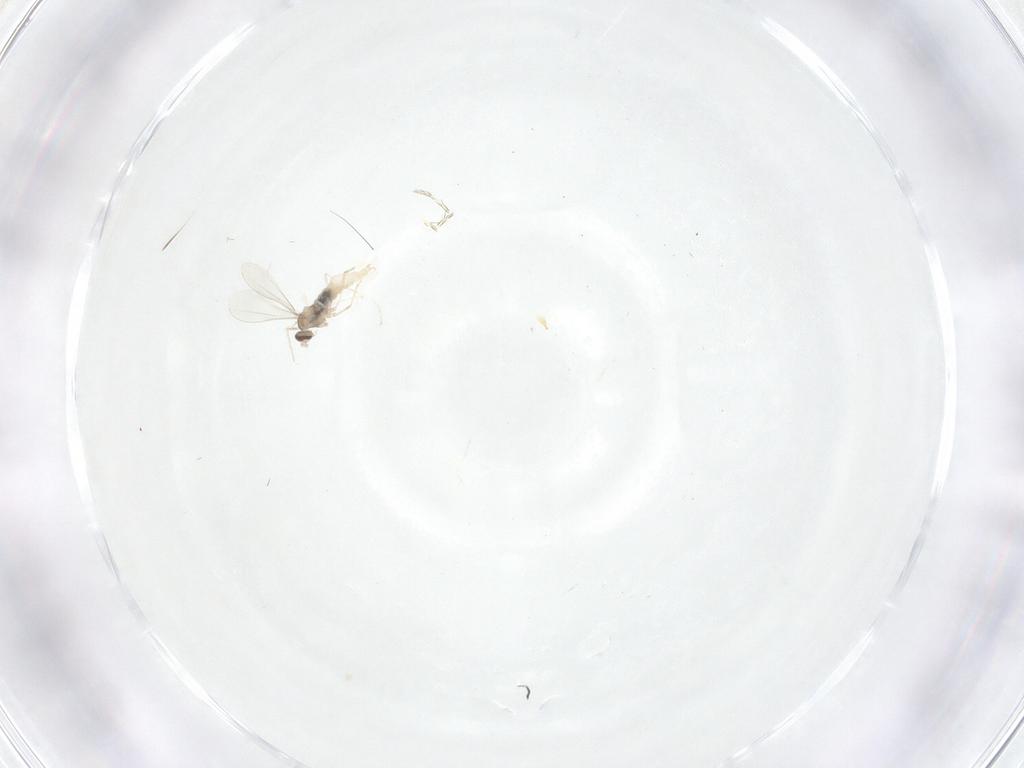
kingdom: Animalia
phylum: Arthropoda
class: Insecta
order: Diptera
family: Cecidomyiidae
